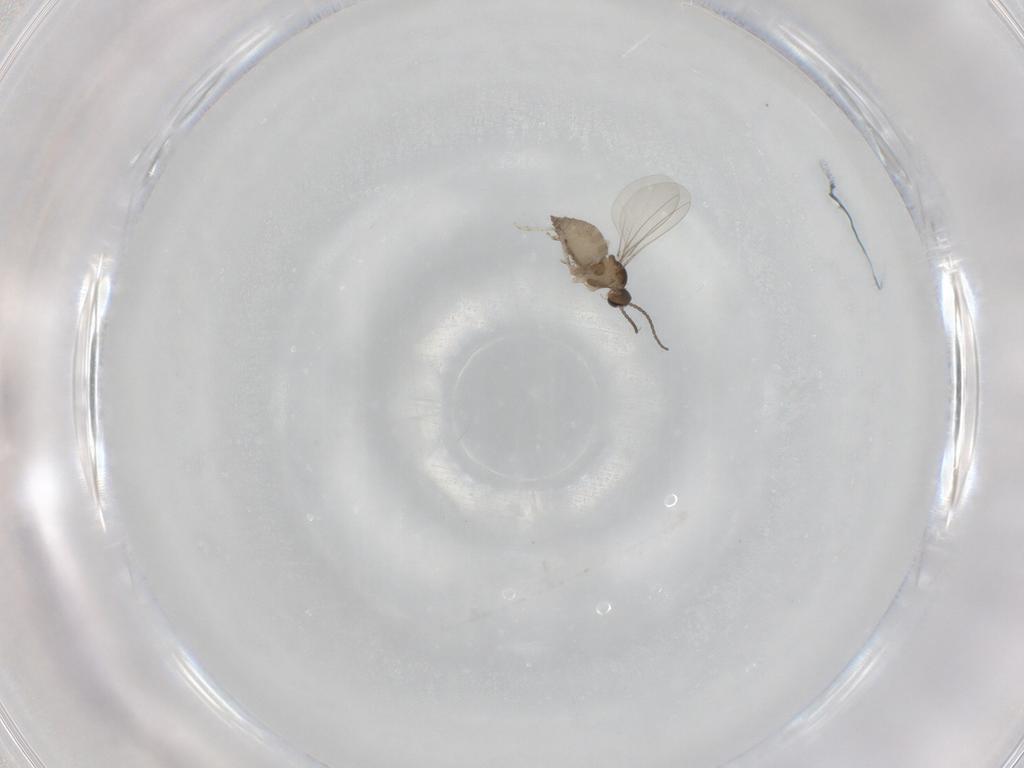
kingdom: Animalia
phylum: Arthropoda
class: Insecta
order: Diptera
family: Cecidomyiidae
